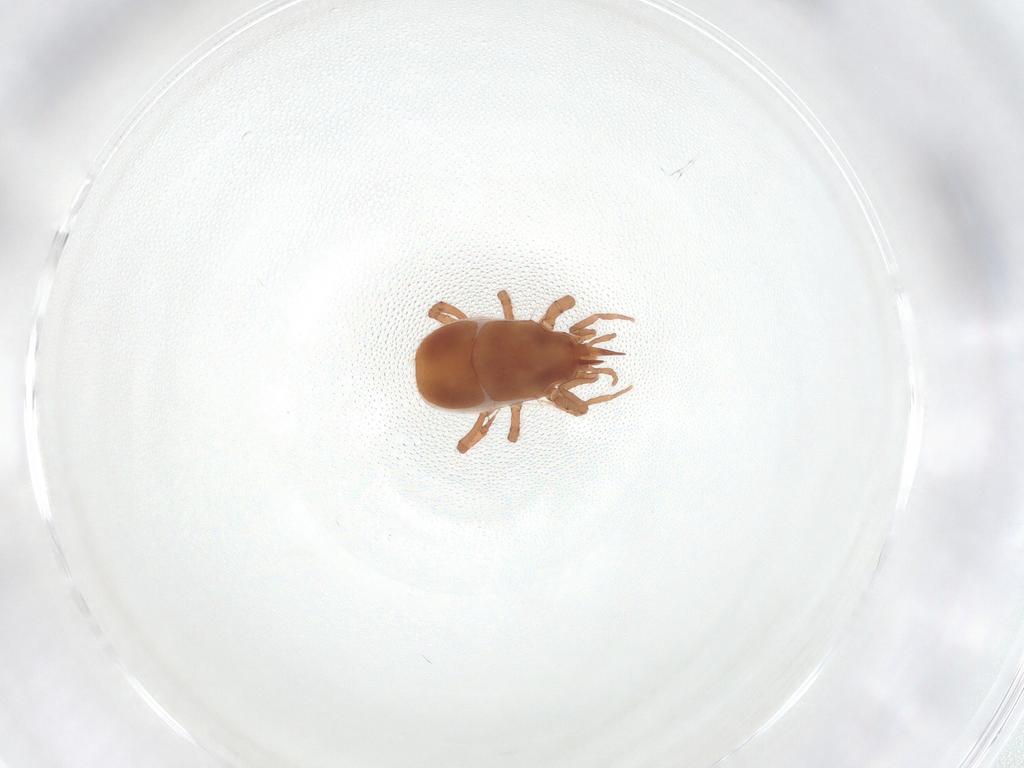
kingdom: Animalia
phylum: Arthropoda
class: Arachnida
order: Mesostigmata
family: Veigaiidae
